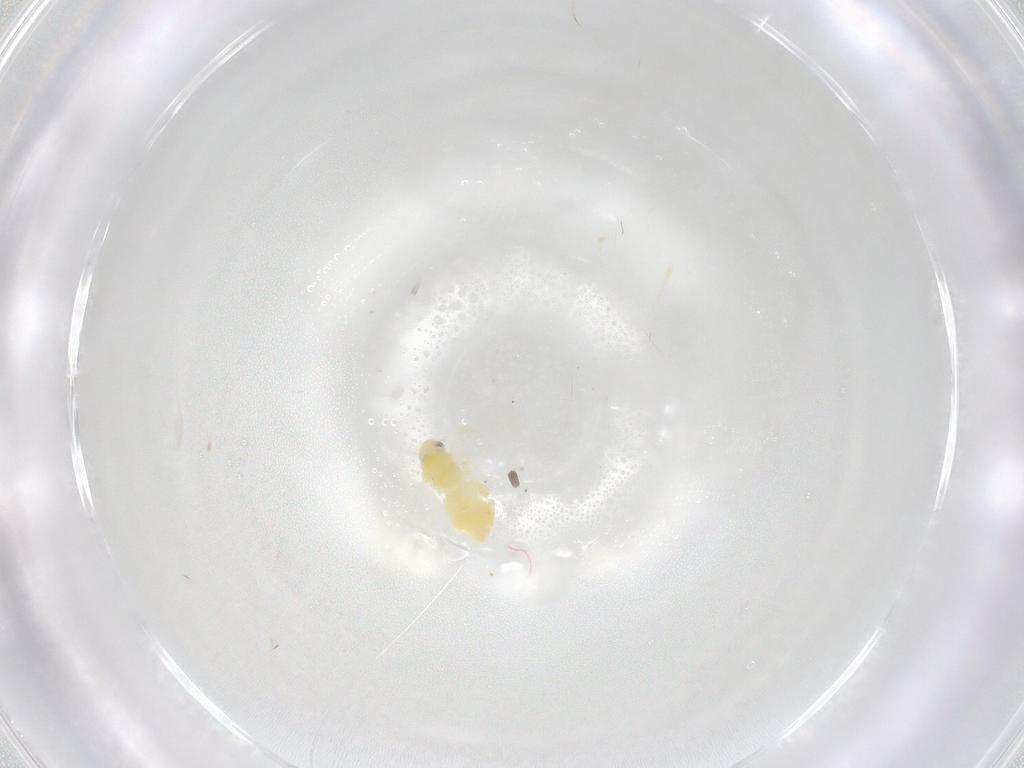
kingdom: Animalia
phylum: Arthropoda
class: Insecta
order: Hemiptera
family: Aleyrodidae
